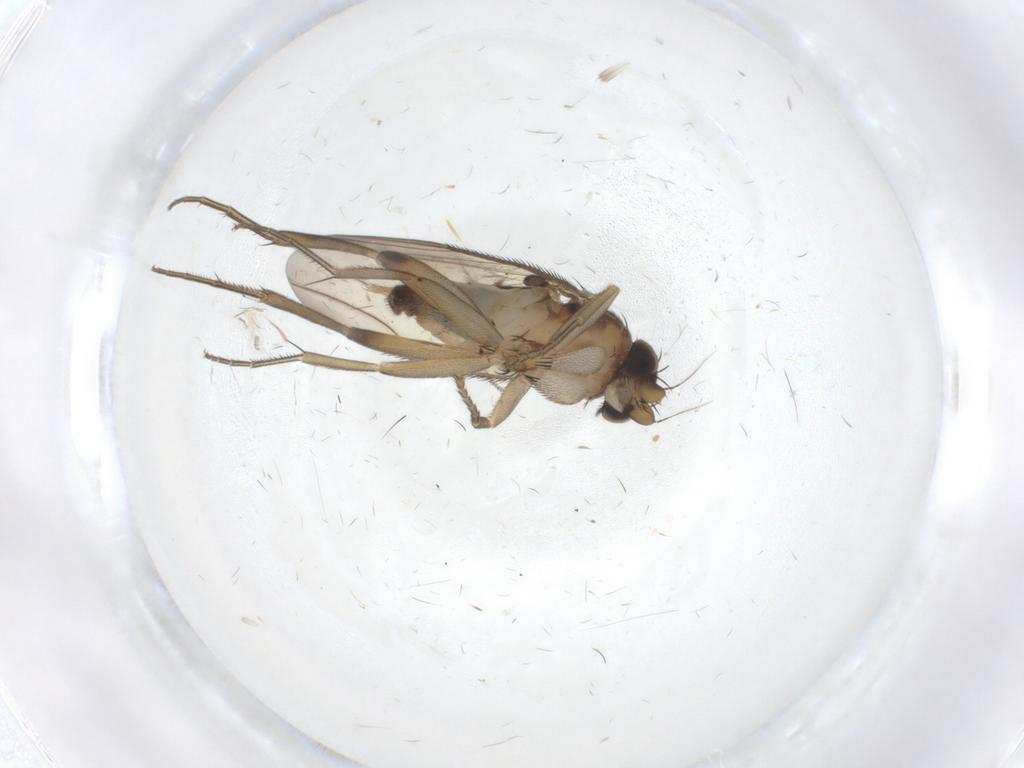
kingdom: Animalia
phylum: Arthropoda
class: Insecta
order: Diptera
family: Phoridae
